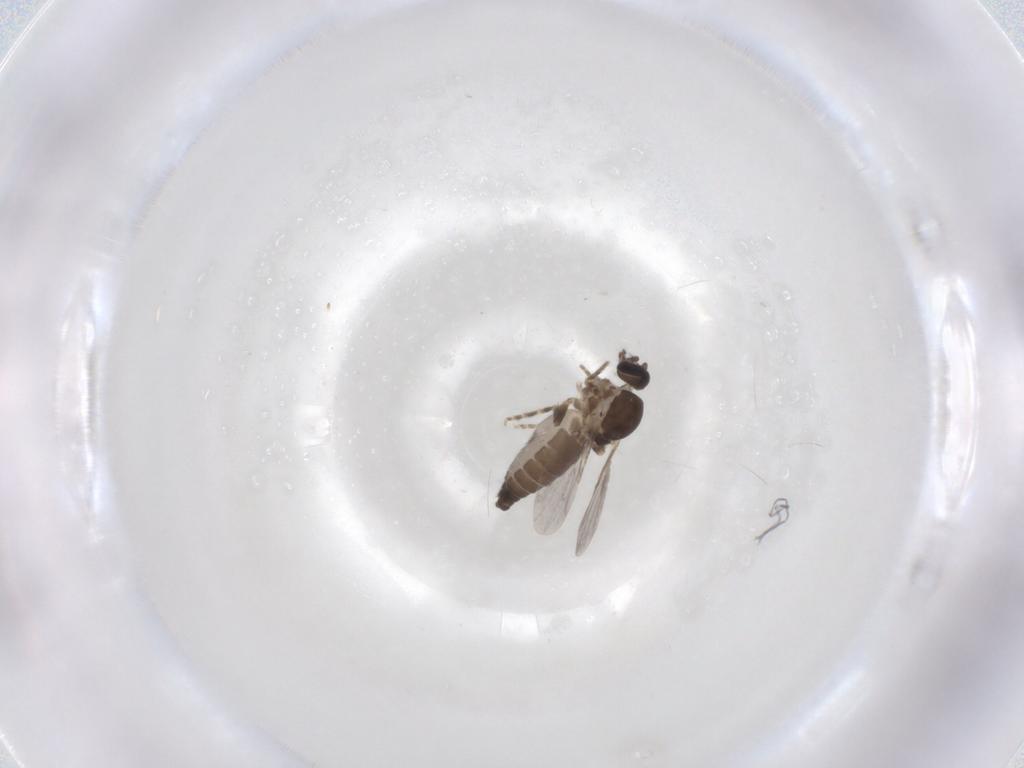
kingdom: Animalia
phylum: Arthropoda
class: Insecta
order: Diptera
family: Ceratopogonidae
